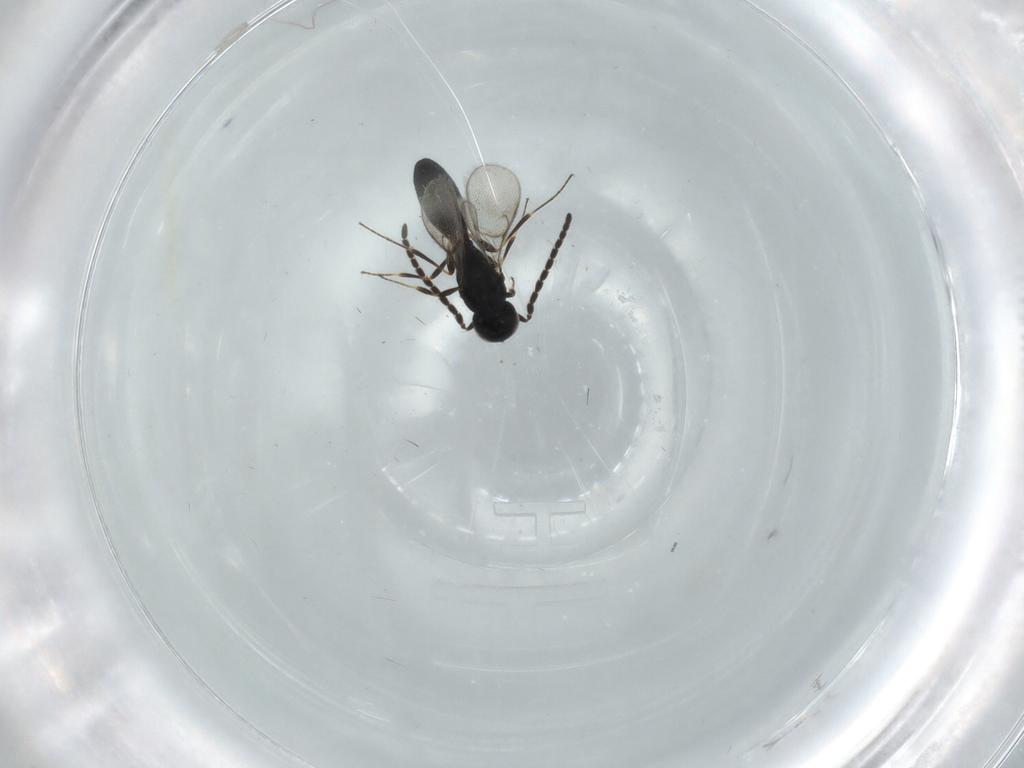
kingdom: Animalia
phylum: Arthropoda
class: Insecta
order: Hymenoptera
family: Scelionidae
